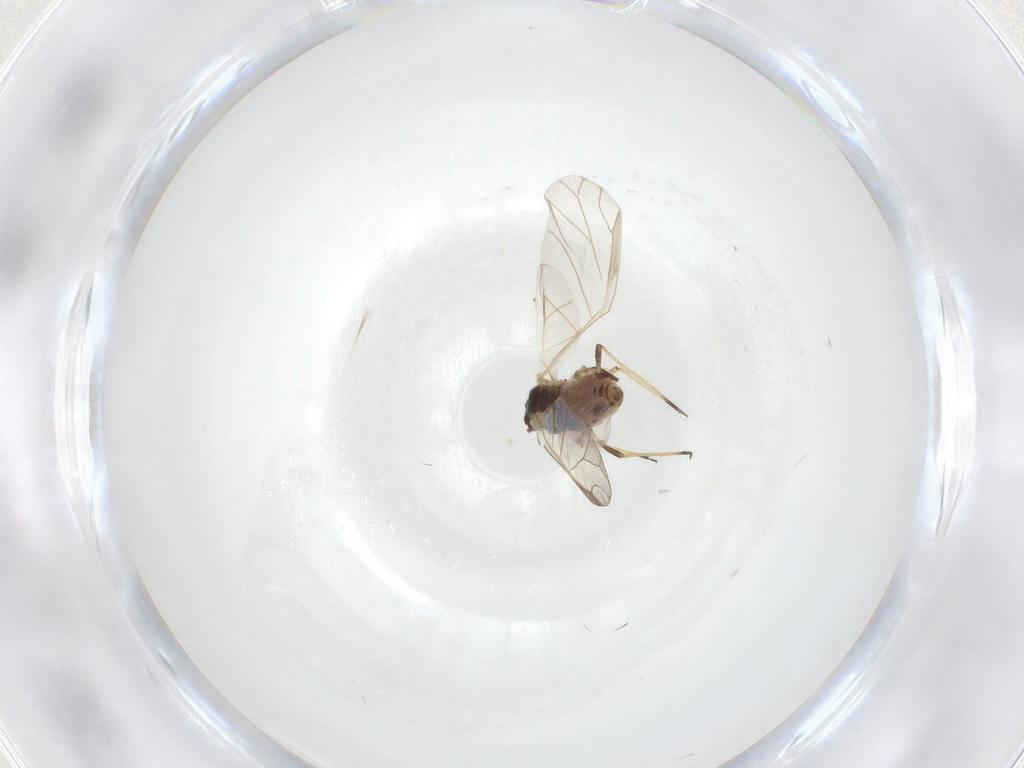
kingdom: Animalia
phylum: Arthropoda
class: Insecta
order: Hemiptera
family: Aphididae
